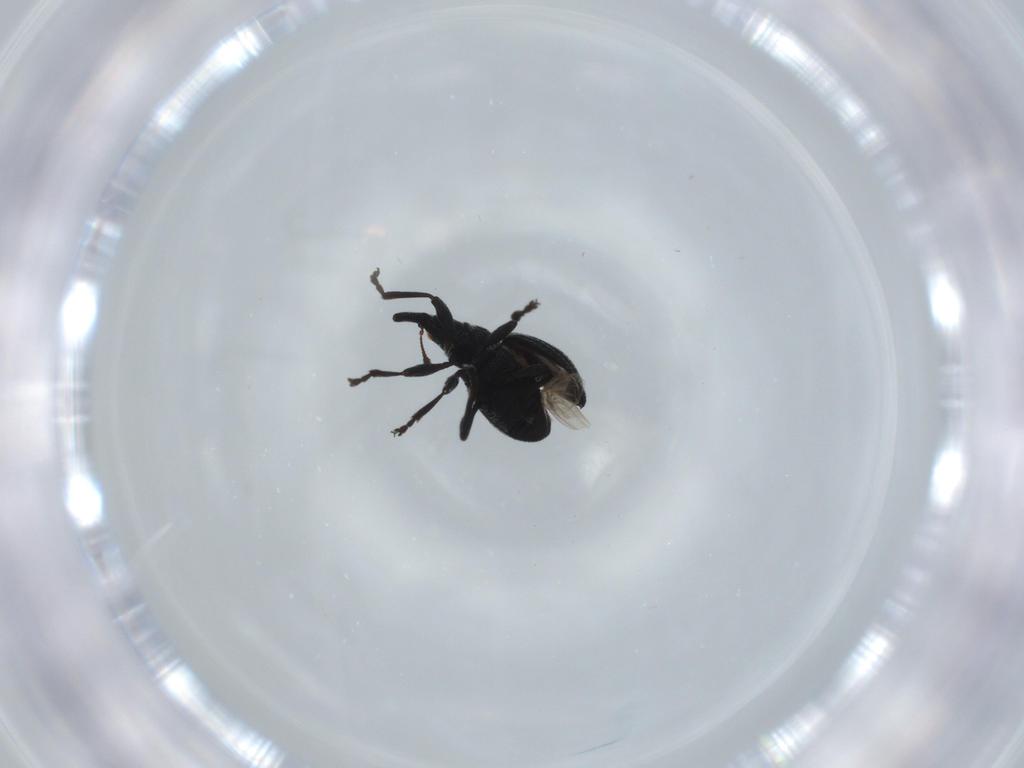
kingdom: Animalia
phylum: Arthropoda
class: Insecta
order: Coleoptera
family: Brentidae
